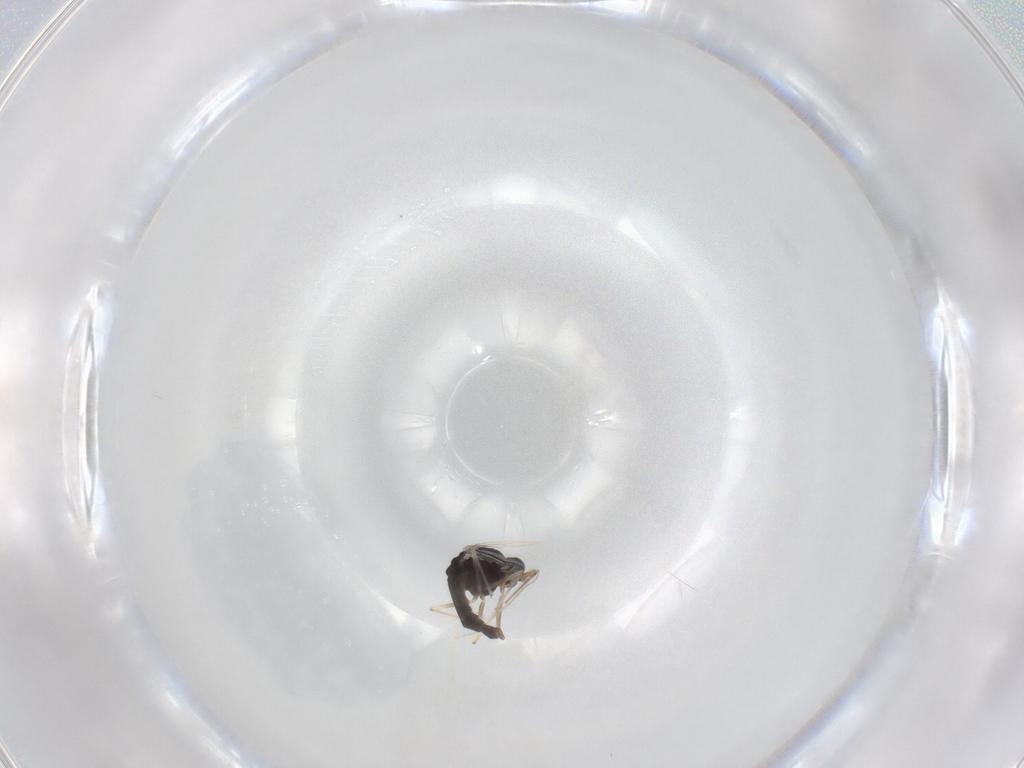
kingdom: Animalia
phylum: Arthropoda
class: Insecta
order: Diptera
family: Chironomidae
